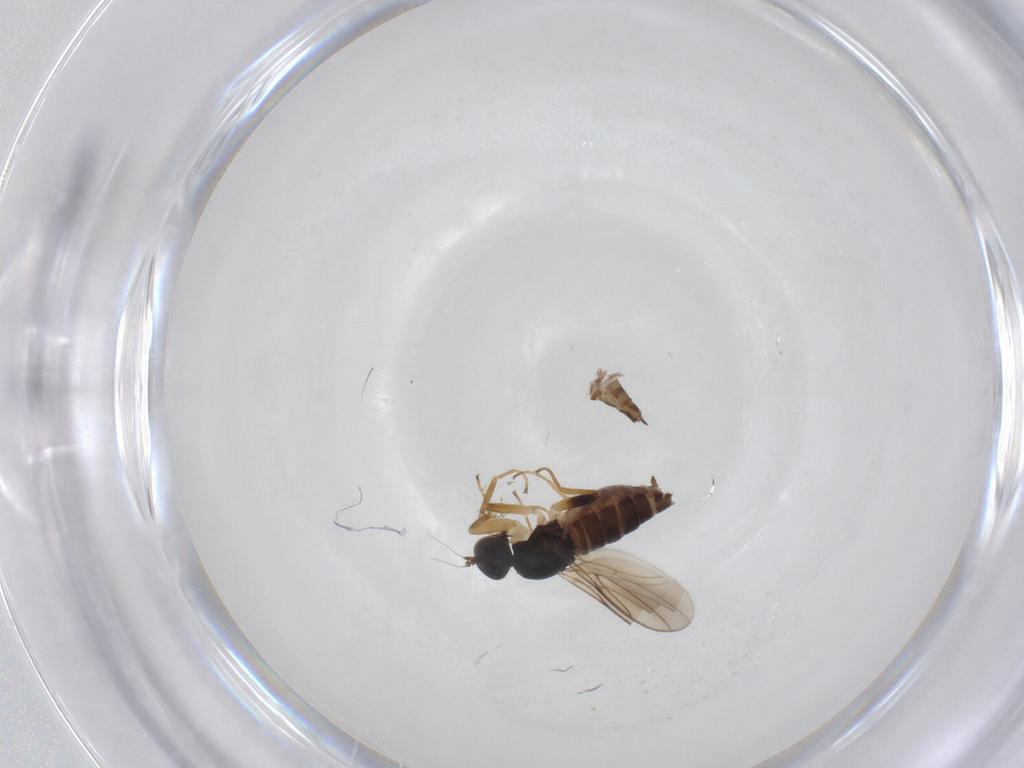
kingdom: Animalia
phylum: Arthropoda
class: Insecta
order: Diptera
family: Hybotidae
